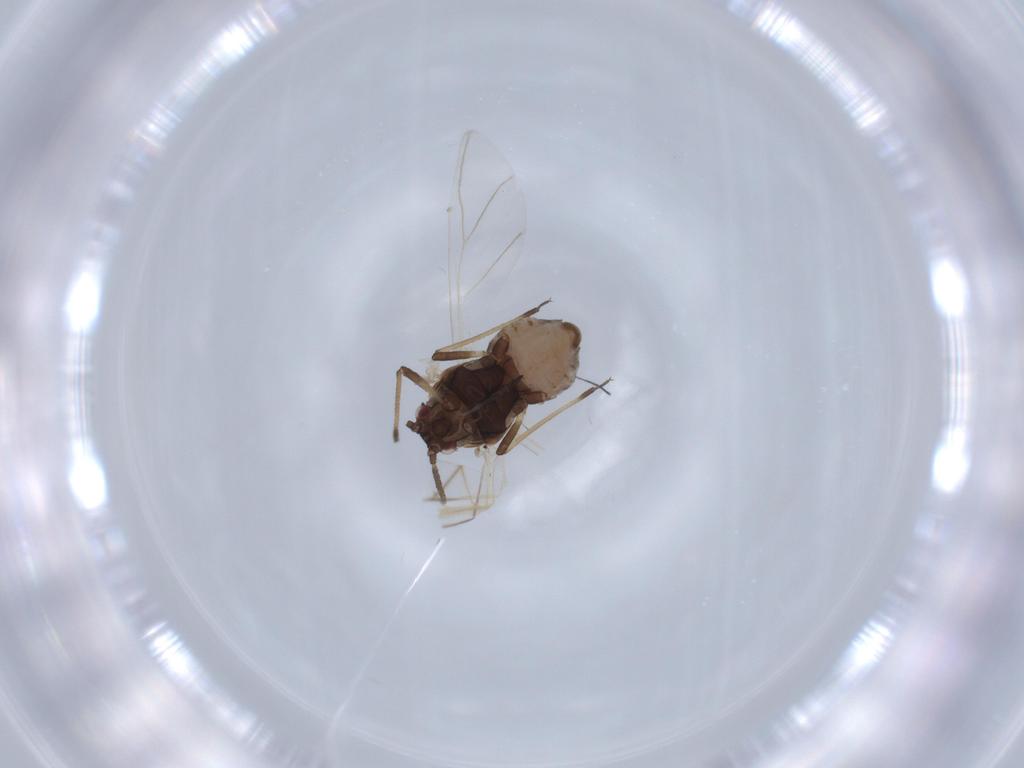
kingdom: Animalia
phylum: Arthropoda
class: Insecta
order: Hemiptera
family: Aphididae
